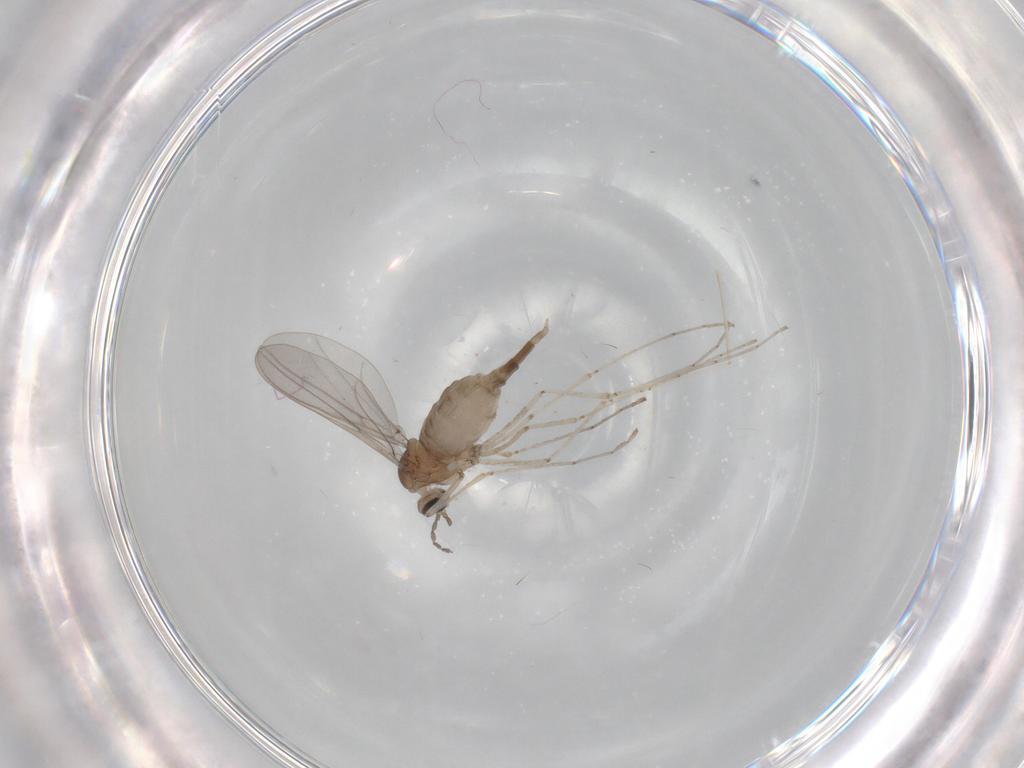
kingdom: Animalia
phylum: Arthropoda
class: Insecta
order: Diptera
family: Cecidomyiidae
